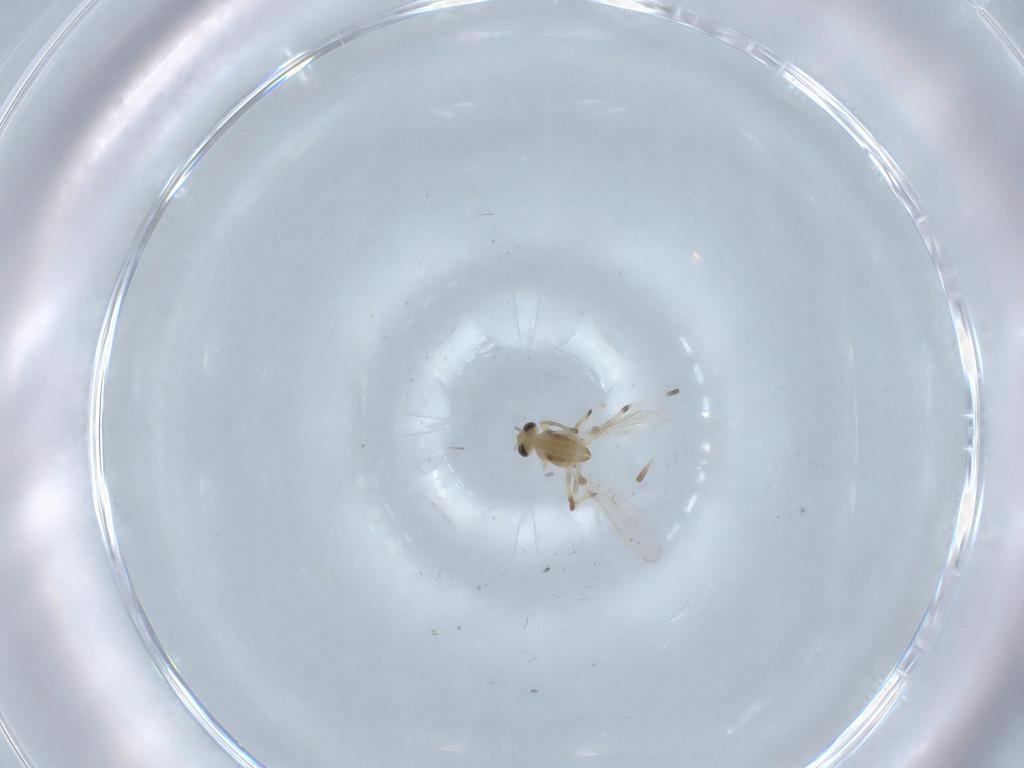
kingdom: Animalia
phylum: Arthropoda
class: Insecta
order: Diptera
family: Chironomidae
